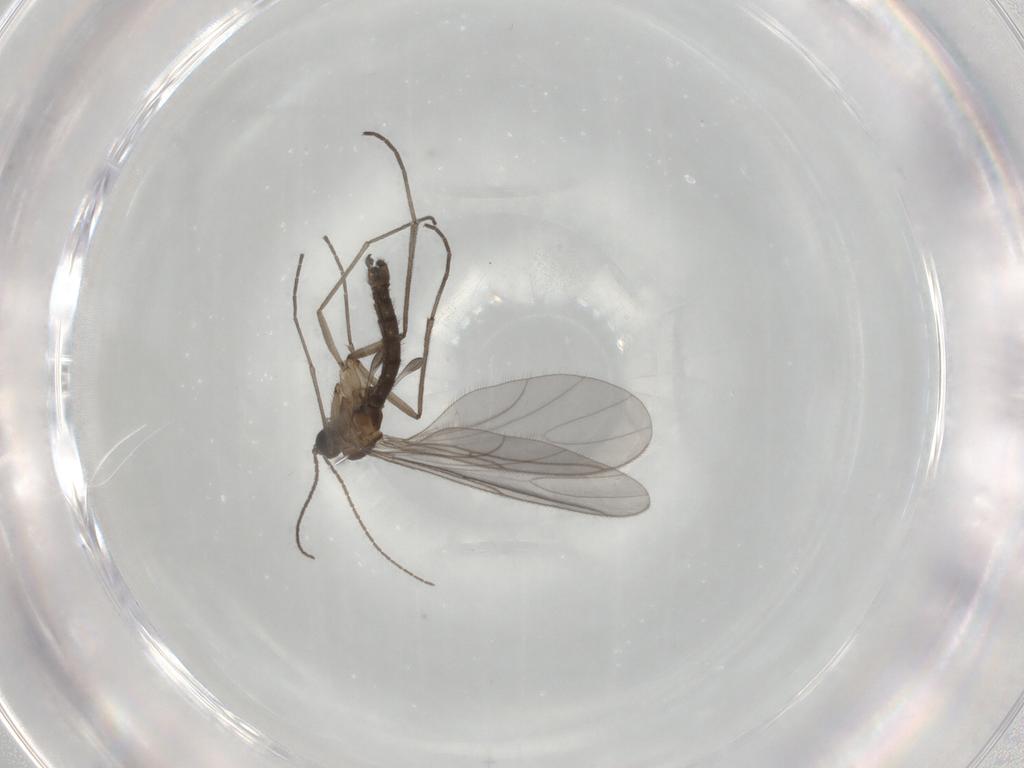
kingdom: Animalia
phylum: Arthropoda
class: Insecta
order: Diptera
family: Sciaridae
